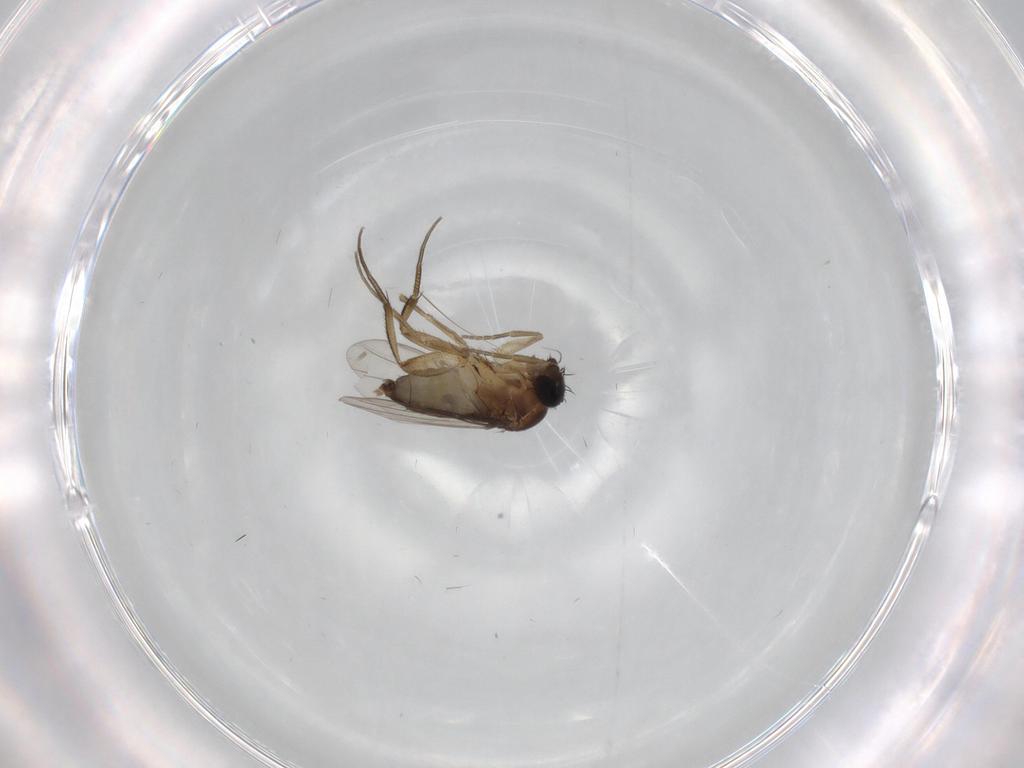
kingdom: Animalia
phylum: Arthropoda
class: Insecta
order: Diptera
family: Phoridae
